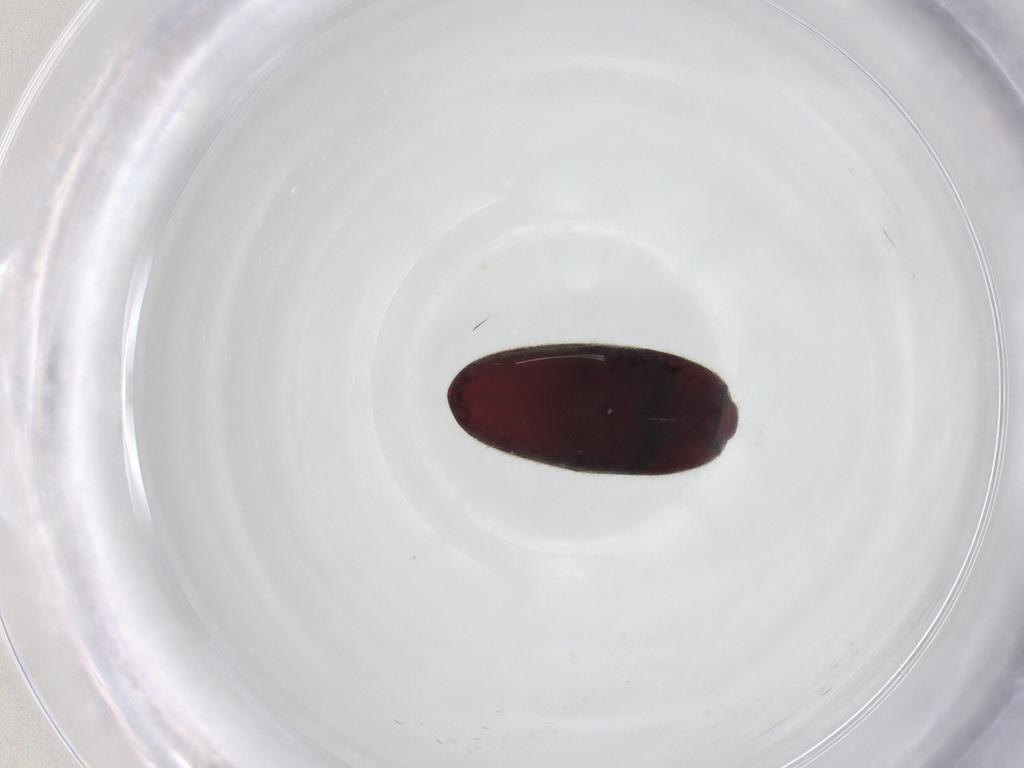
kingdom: Animalia
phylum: Arthropoda
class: Insecta
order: Coleoptera
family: Throscidae
